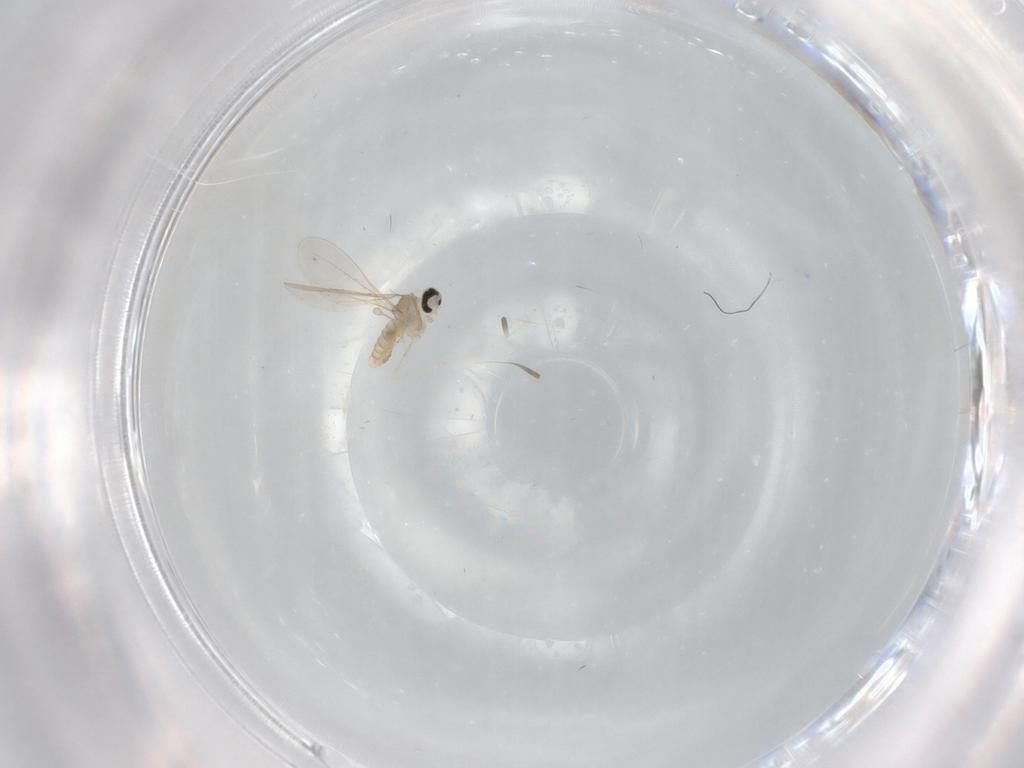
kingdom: Animalia
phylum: Arthropoda
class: Insecta
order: Diptera
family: Cecidomyiidae
